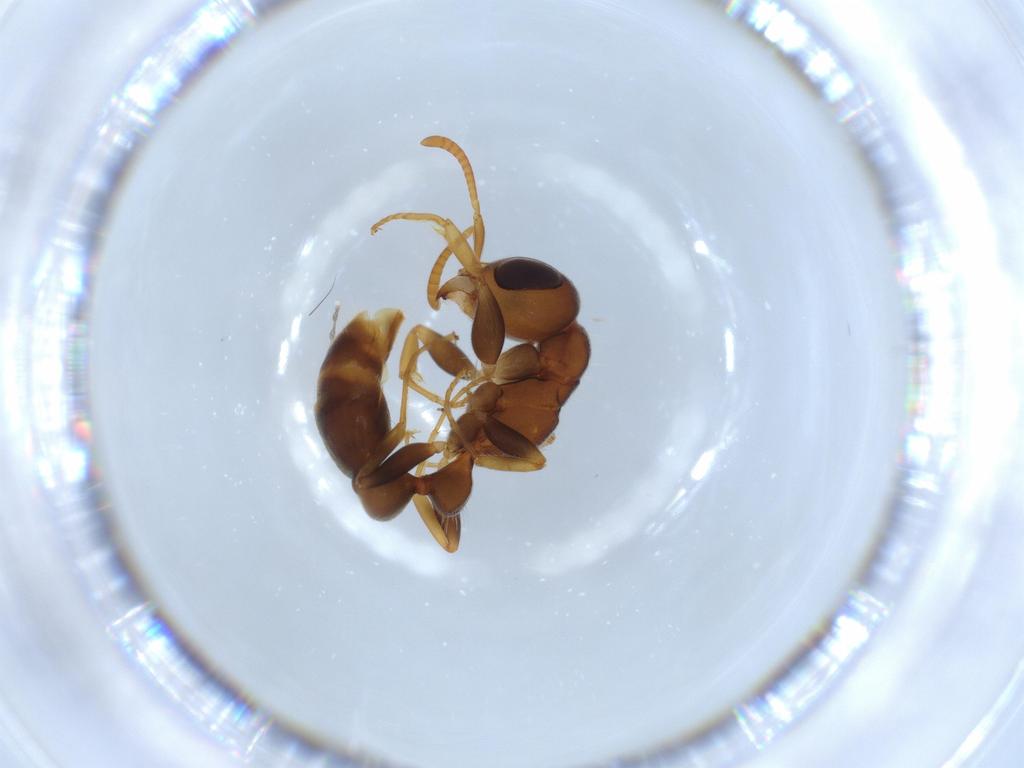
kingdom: Animalia
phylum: Arthropoda
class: Insecta
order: Hymenoptera
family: Formicidae
